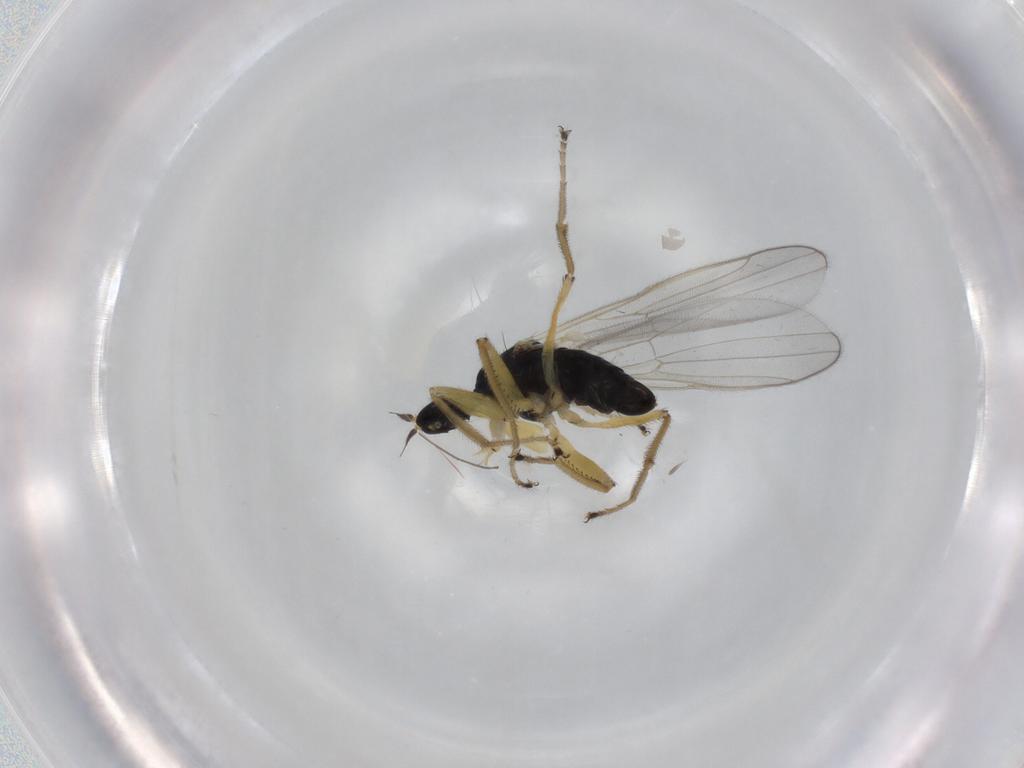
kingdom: Animalia
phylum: Arthropoda
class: Insecta
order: Diptera
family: Hybotidae
